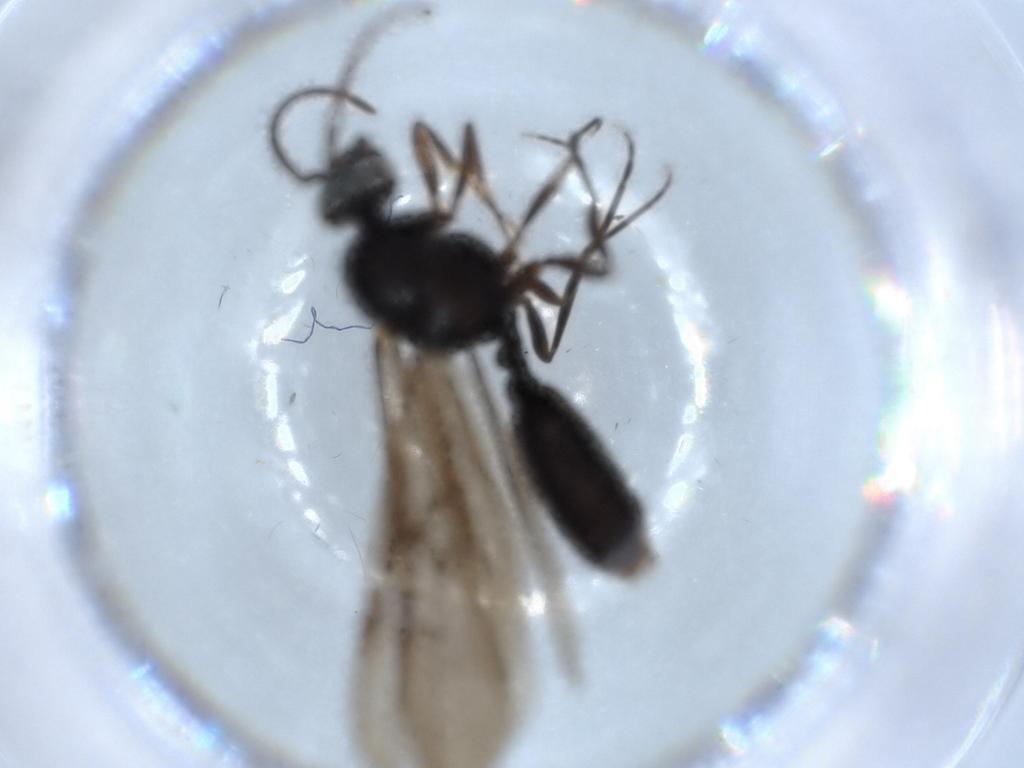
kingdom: Animalia
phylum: Arthropoda
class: Insecta
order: Hymenoptera
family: Formicidae
